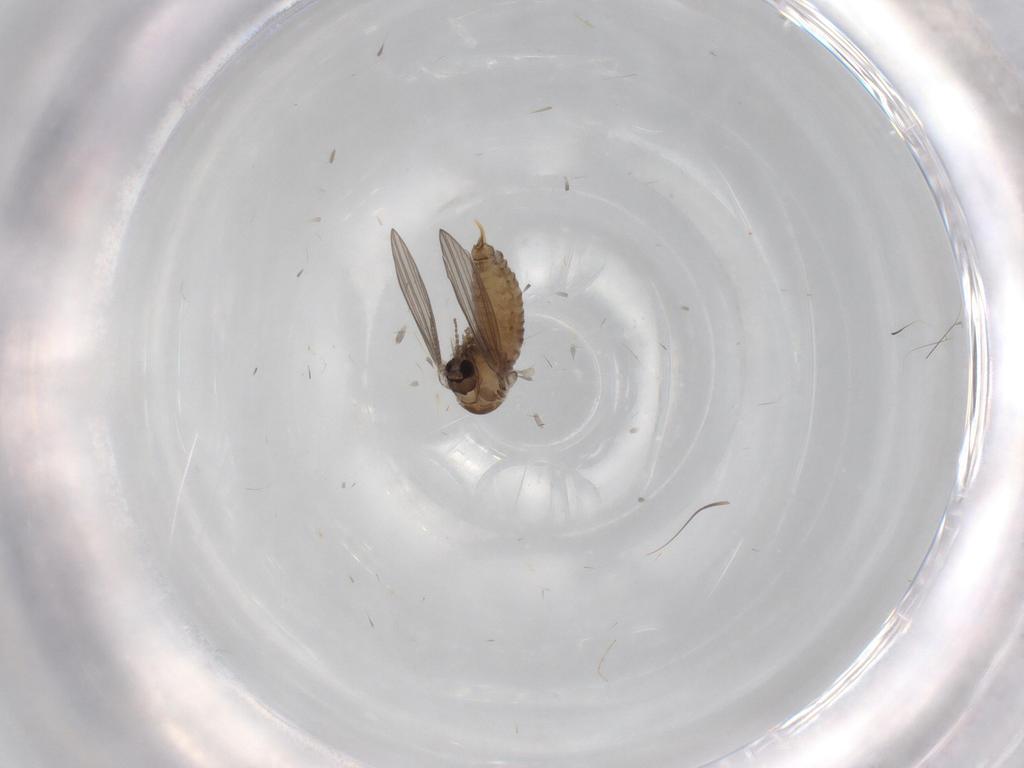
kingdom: Animalia
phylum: Arthropoda
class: Insecta
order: Diptera
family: Psychodidae
